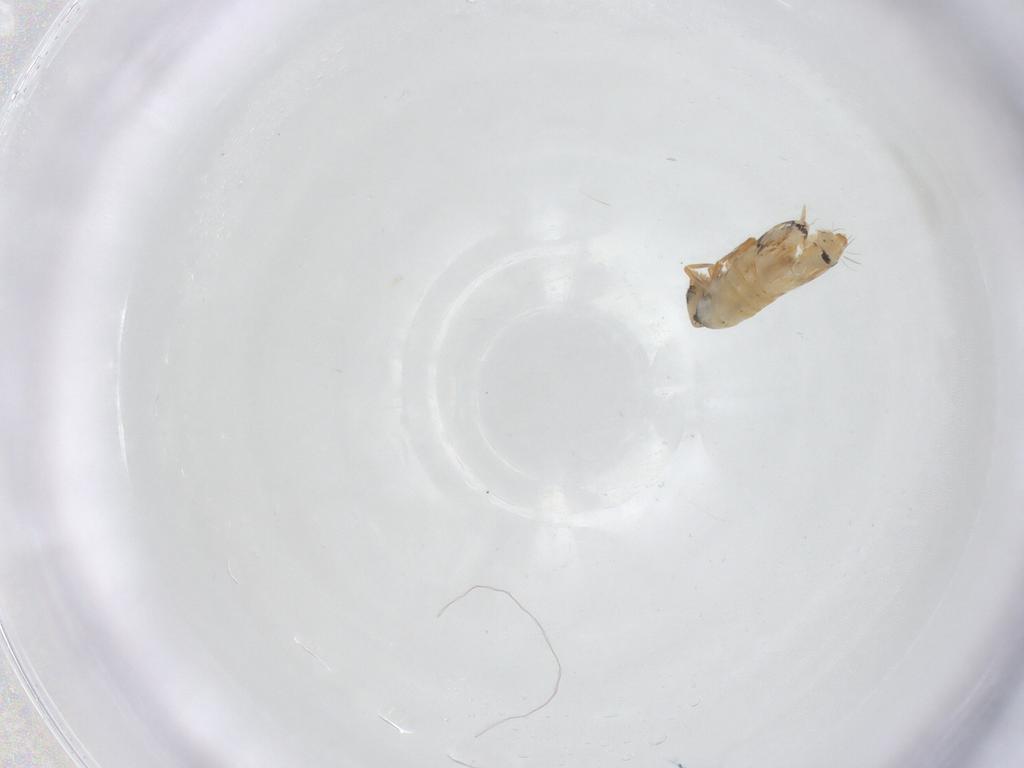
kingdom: Animalia
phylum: Arthropoda
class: Collembola
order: Entomobryomorpha
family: Entomobryidae
